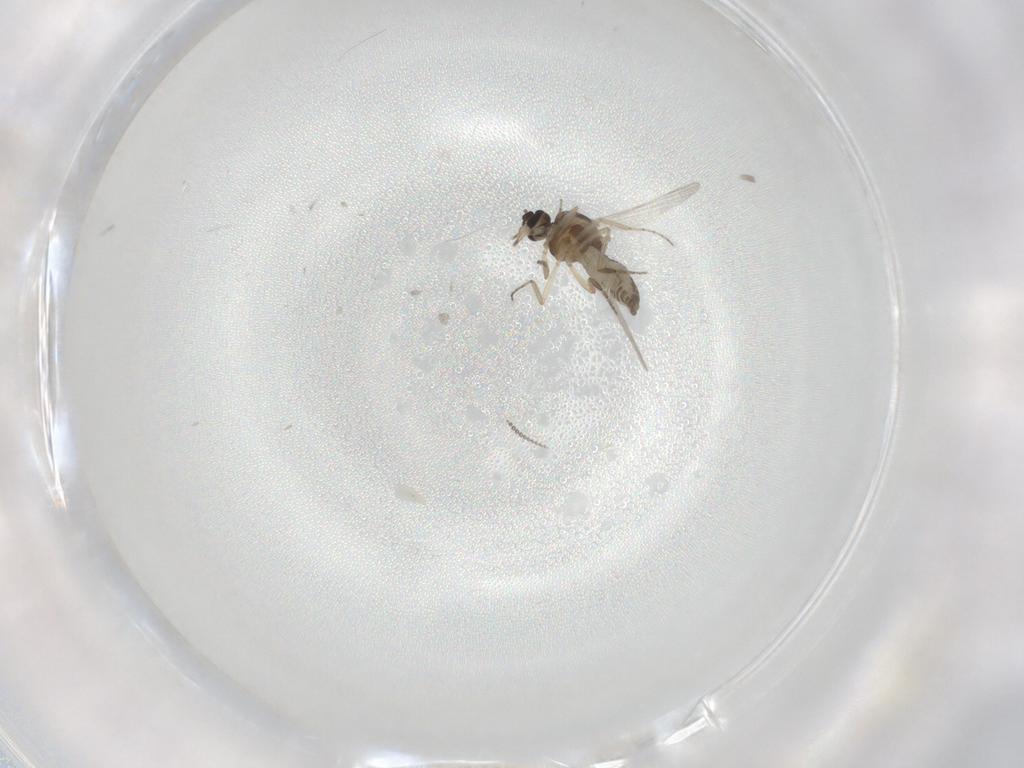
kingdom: Animalia
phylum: Arthropoda
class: Insecta
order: Diptera
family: Ceratopogonidae
